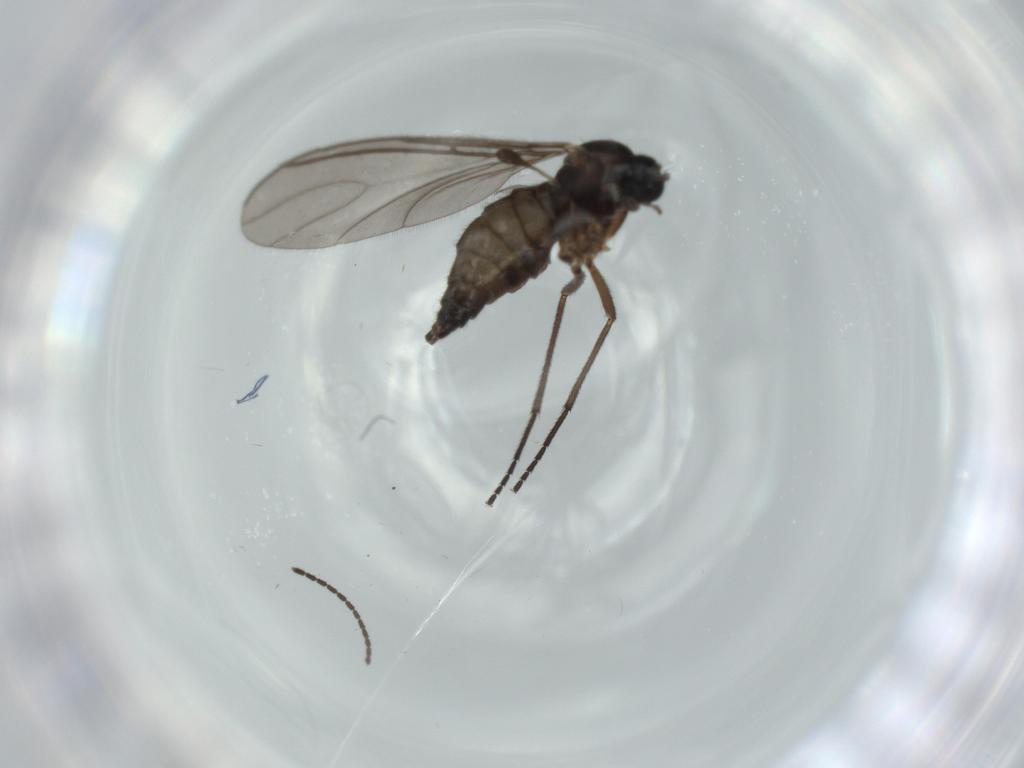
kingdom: Animalia
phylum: Arthropoda
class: Insecta
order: Diptera
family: Sciaridae
